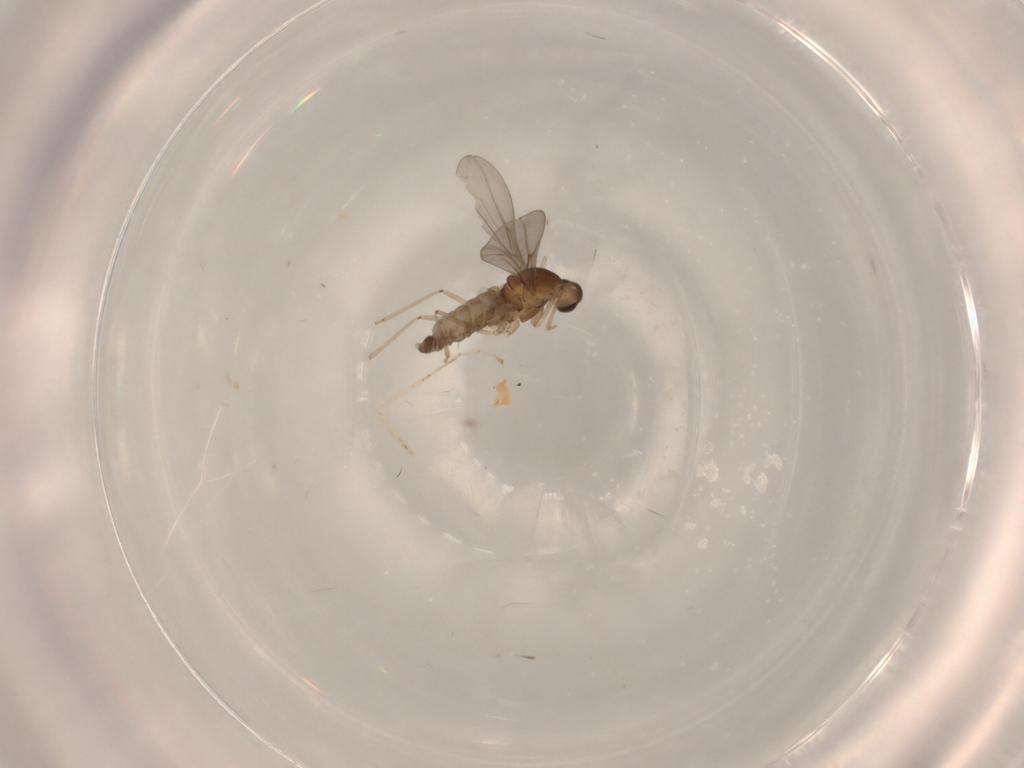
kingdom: Animalia
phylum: Arthropoda
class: Insecta
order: Diptera
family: Cecidomyiidae
